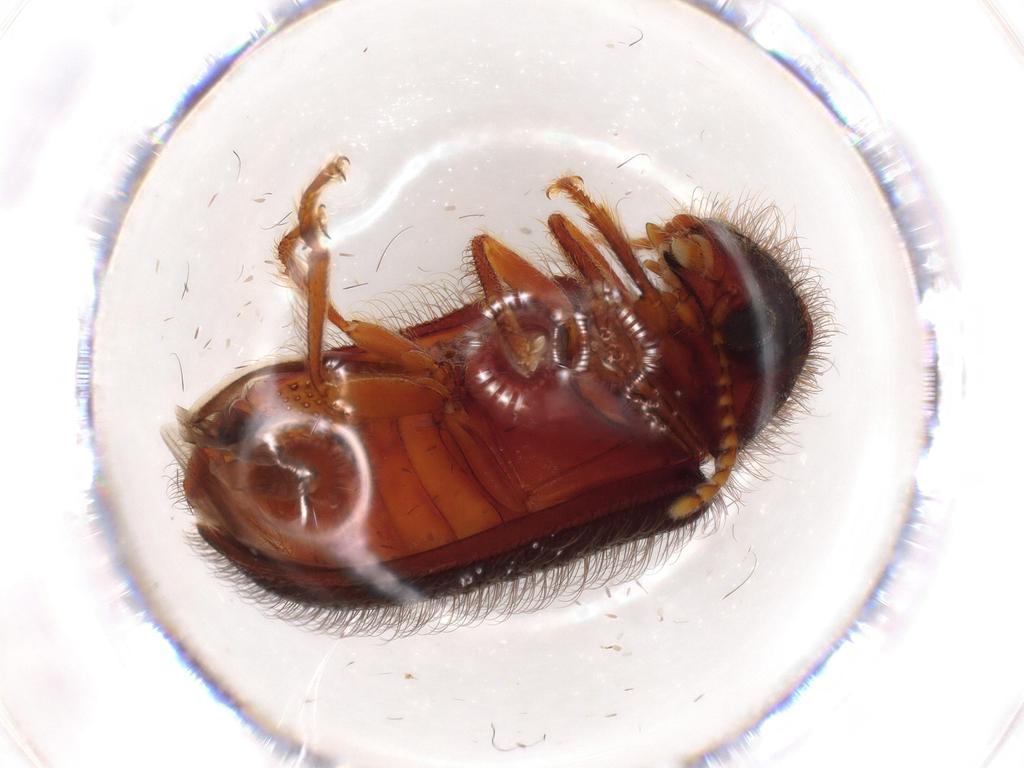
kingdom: Animalia
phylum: Arthropoda
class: Insecta
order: Coleoptera
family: Rhadalidae
